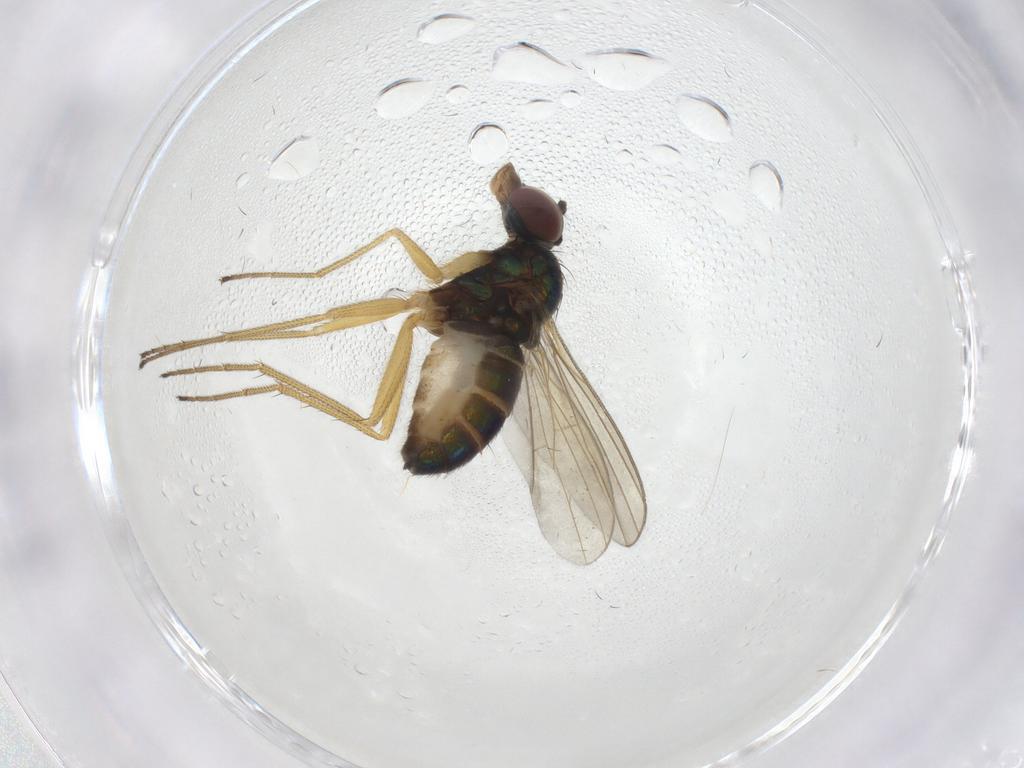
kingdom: Animalia
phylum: Arthropoda
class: Insecta
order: Diptera
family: Dolichopodidae
